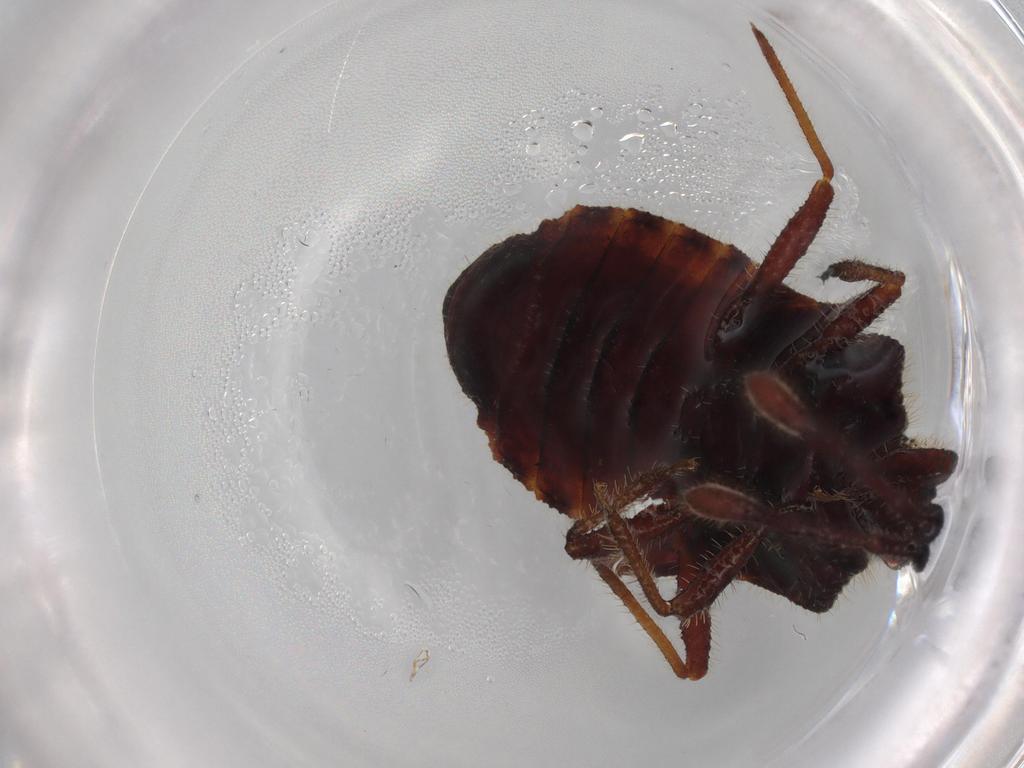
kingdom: Animalia
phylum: Arthropoda
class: Insecta
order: Hemiptera
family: Aradidae
